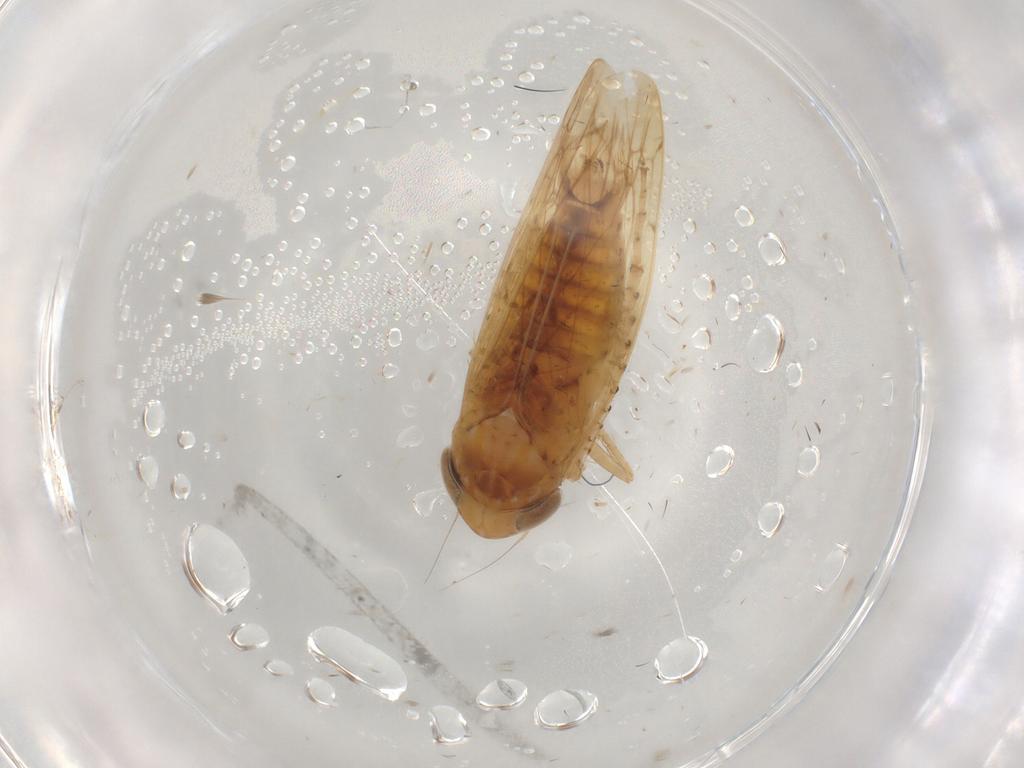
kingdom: Animalia
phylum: Arthropoda
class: Insecta
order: Hemiptera
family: Cicadellidae
